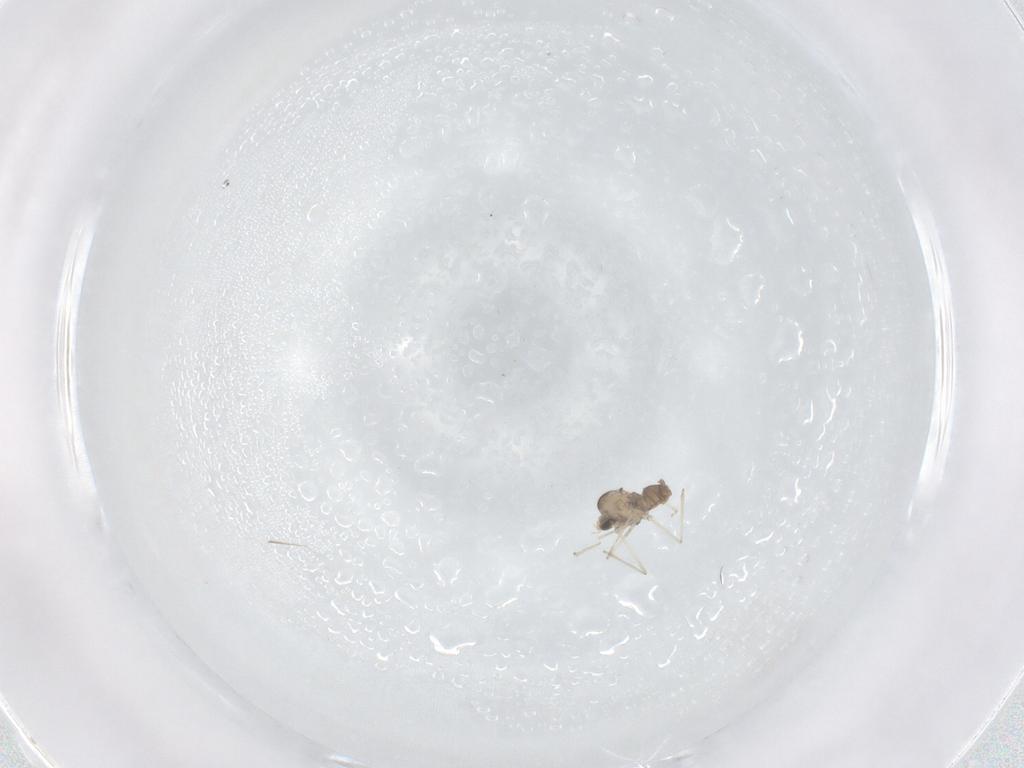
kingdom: Animalia
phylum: Arthropoda
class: Insecta
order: Diptera
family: Cecidomyiidae
